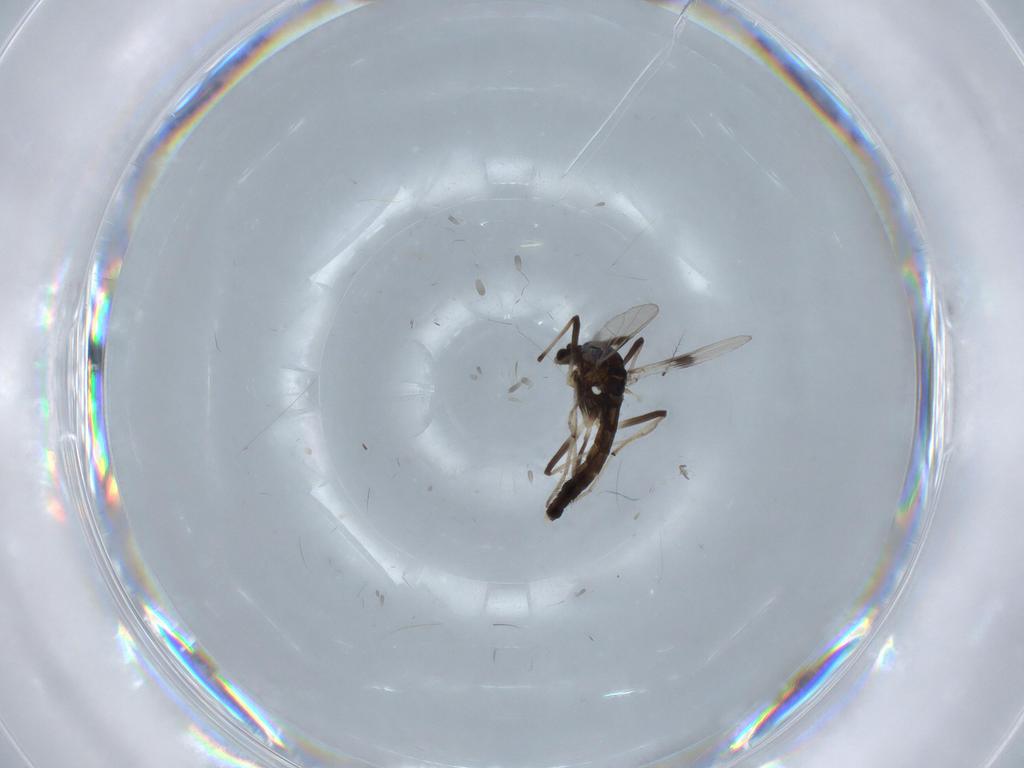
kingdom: Animalia
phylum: Arthropoda
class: Insecta
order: Diptera
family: Chironomidae
